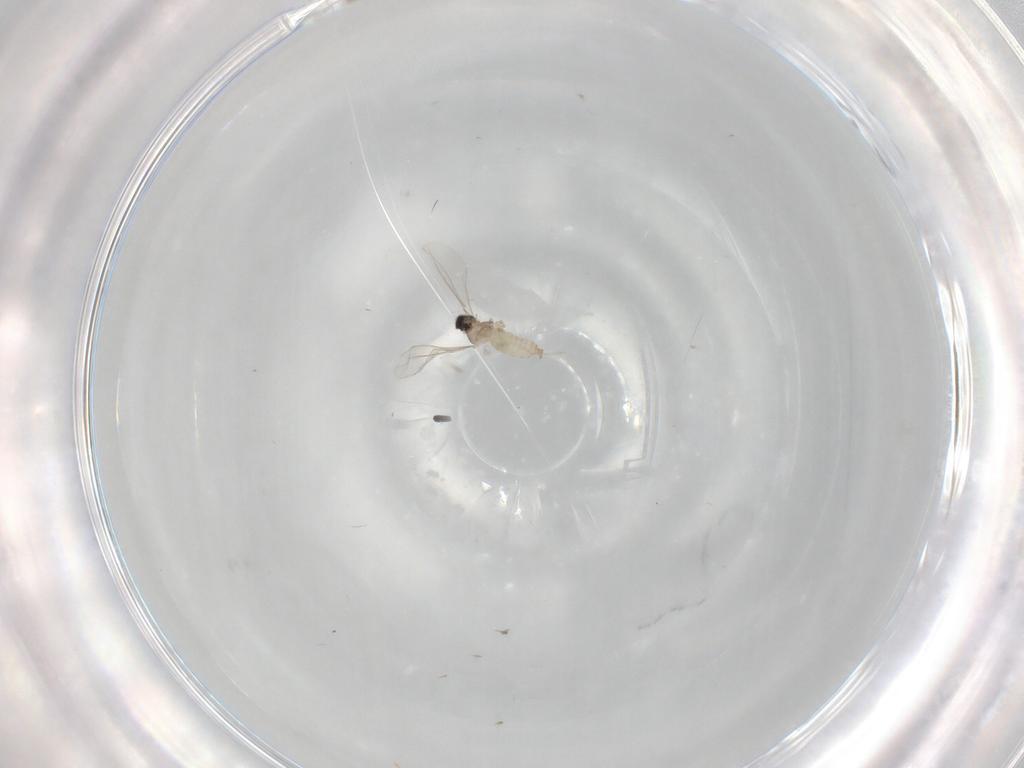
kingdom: Animalia
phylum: Arthropoda
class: Insecta
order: Diptera
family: Cecidomyiidae
